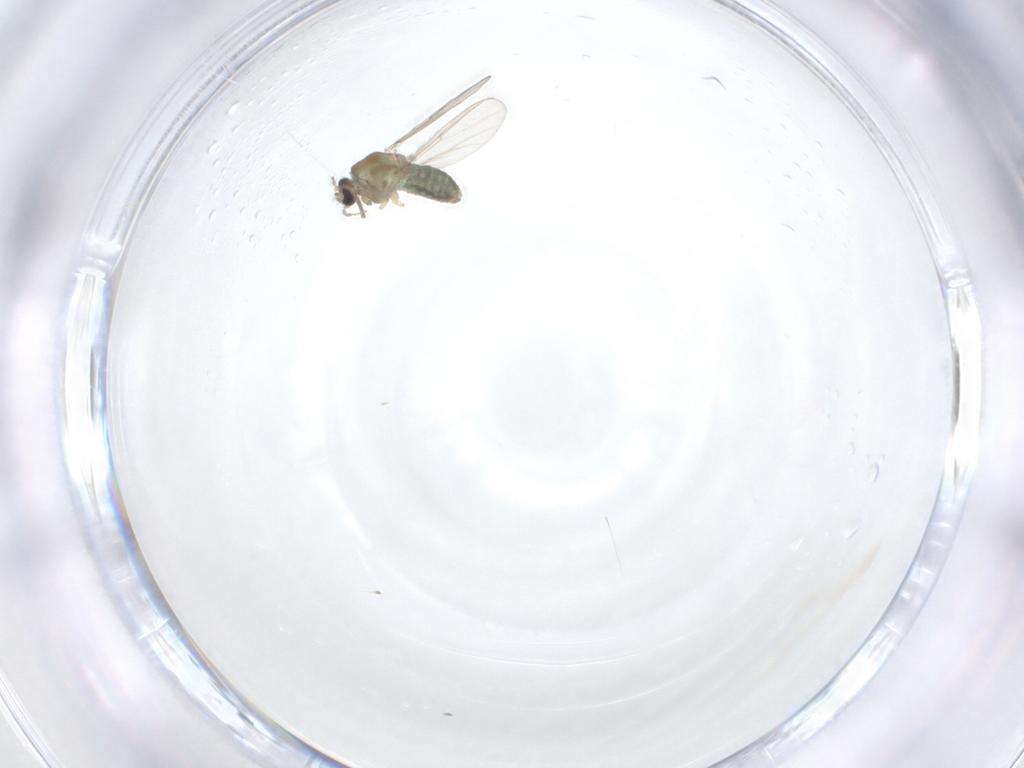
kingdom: Animalia
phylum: Arthropoda
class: Insecta
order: Diptera
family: Chironomidae
